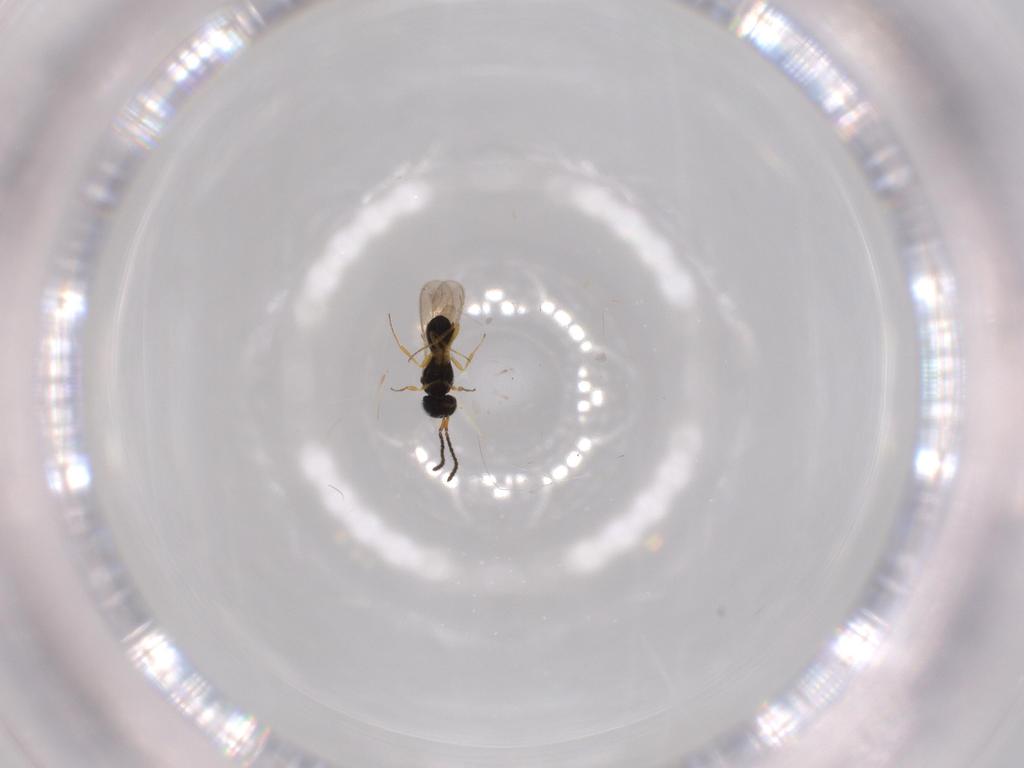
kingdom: Animalia
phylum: Arthropoda
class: Insecta
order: Hymenoptera
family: Scelionidae
